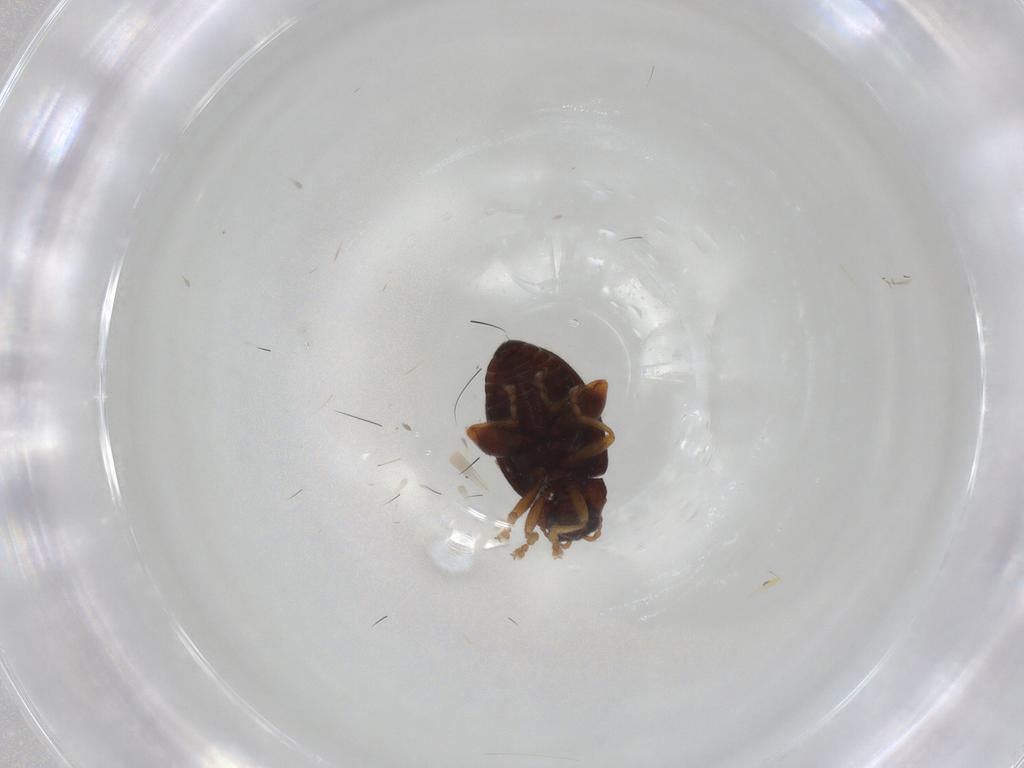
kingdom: Animalia
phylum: Arthropoda
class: Insecta
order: Coleoptera
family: Chrysomelidae
